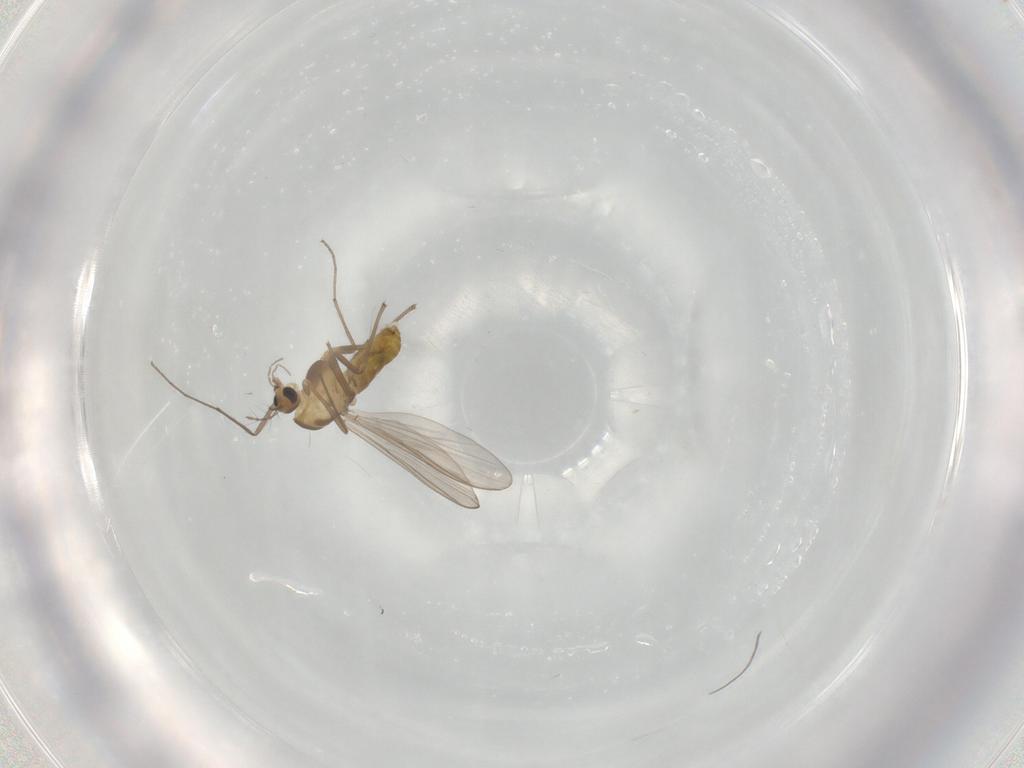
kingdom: Animalia
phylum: Arthropoda
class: Insecta
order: Diptera
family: Chironomidae
